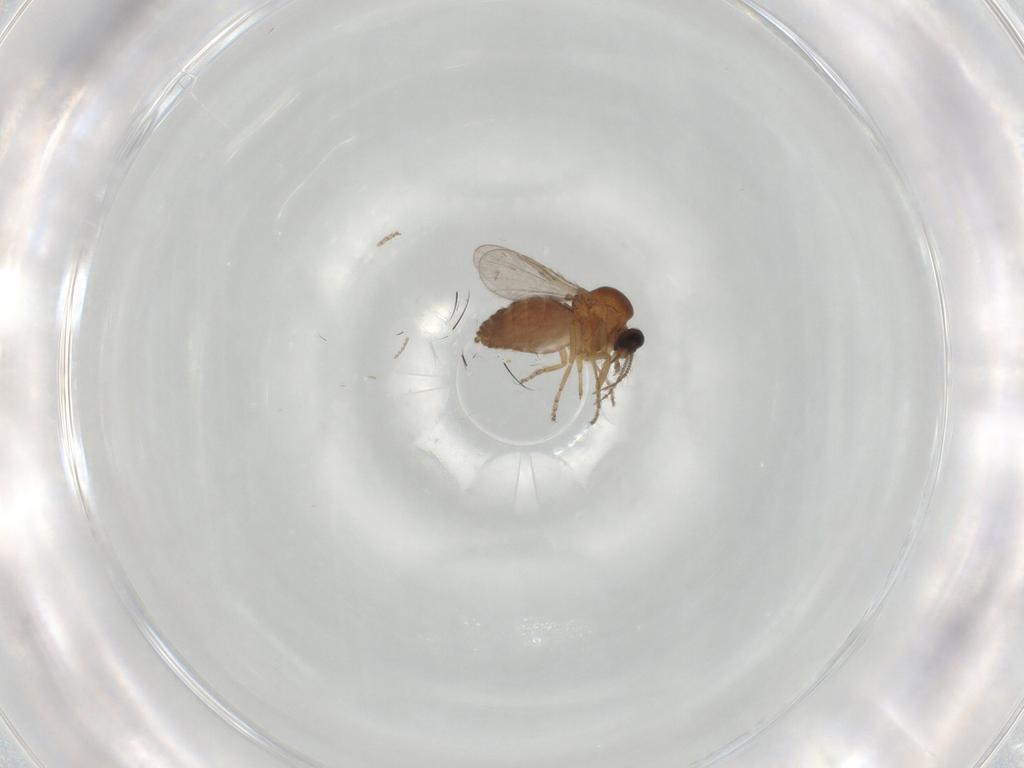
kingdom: Animalia
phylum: Arthropoda
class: Insecta
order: Diptera
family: Ceratopogonidae
